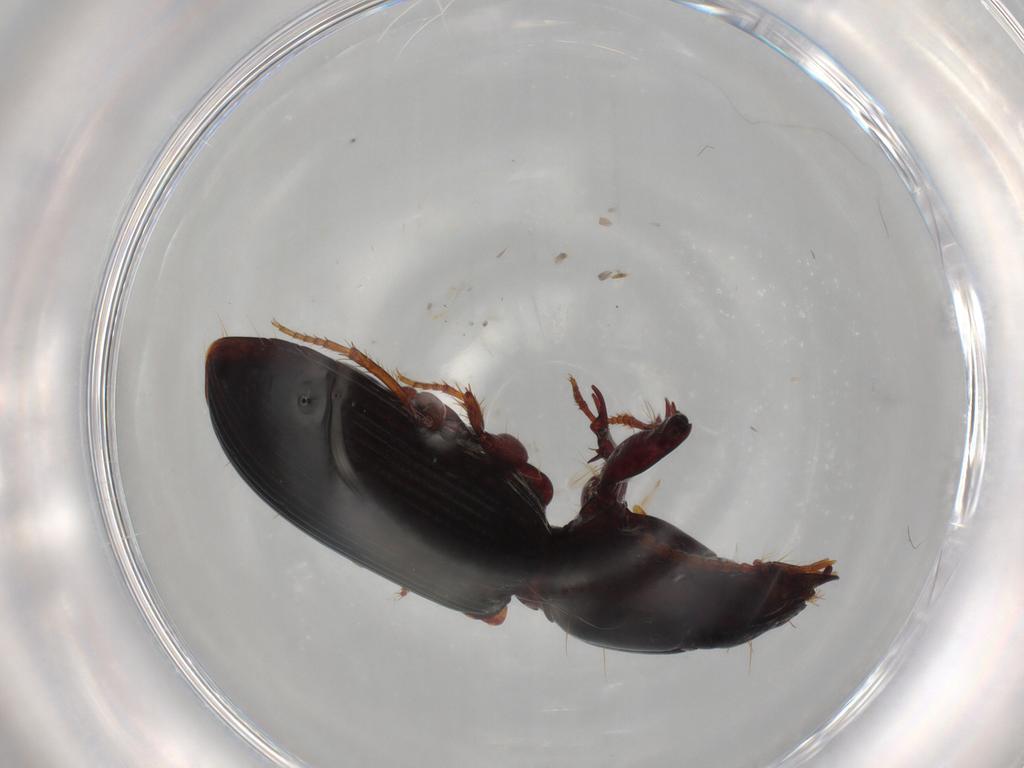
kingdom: Animalia
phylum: Arthropoda
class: Insecta
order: Coleoptera
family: Carabidae
